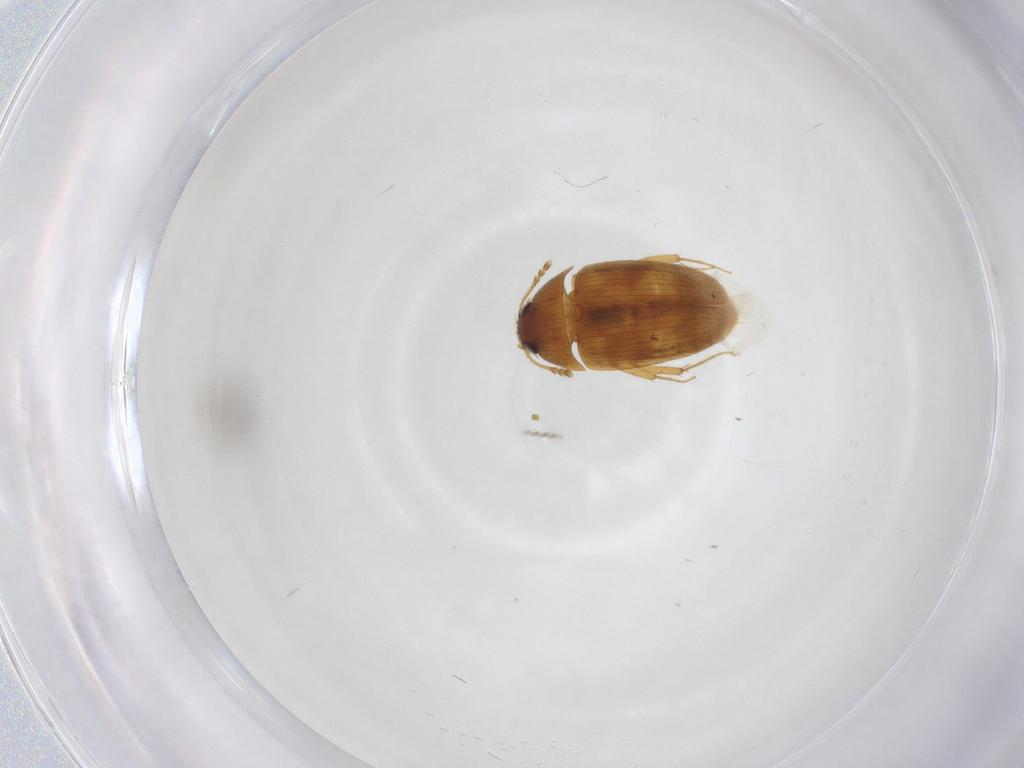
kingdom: Animalia
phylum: Arthropoda
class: Insecta
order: Coleoptera
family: Mycetophagidae
